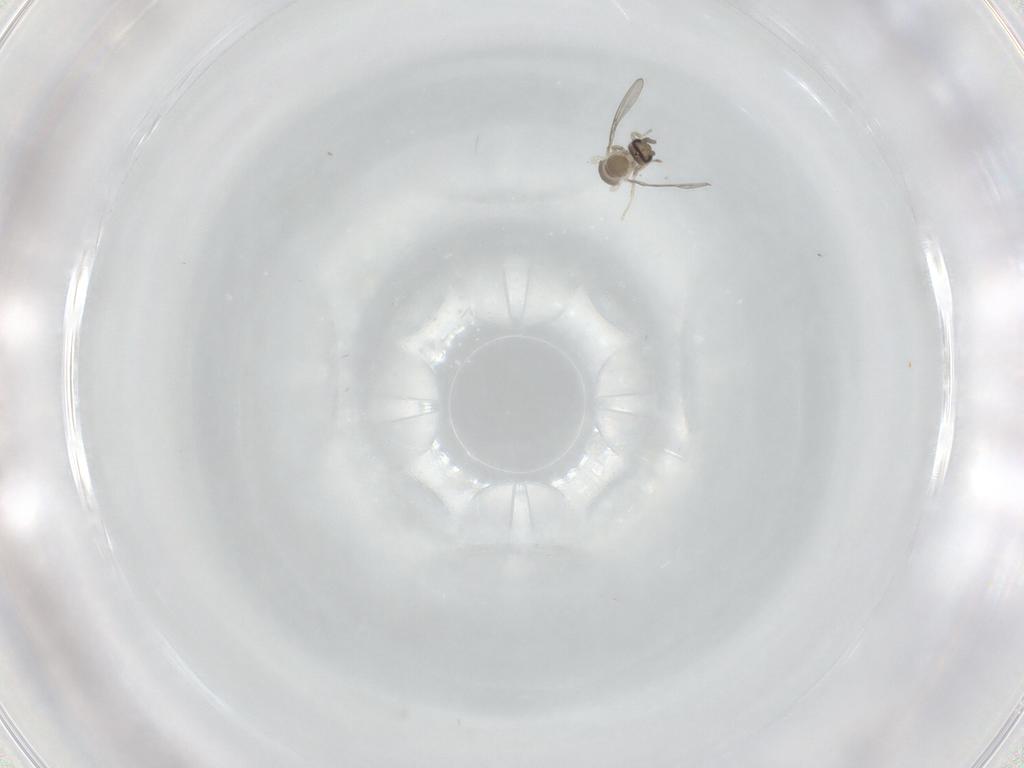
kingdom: Animalia
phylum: Arthropoda
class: Insecta
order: Diptera
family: Cecidomyiidae
